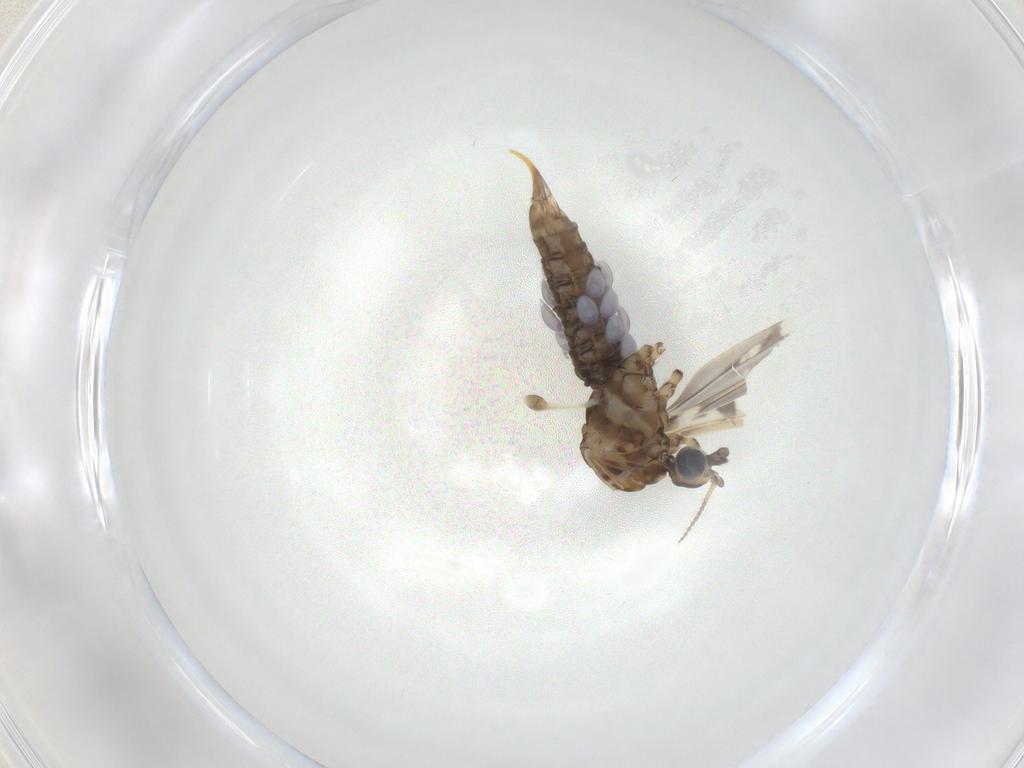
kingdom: Animalia
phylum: Arthropoda
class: Insecta
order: Diptera
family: Limoniidae
